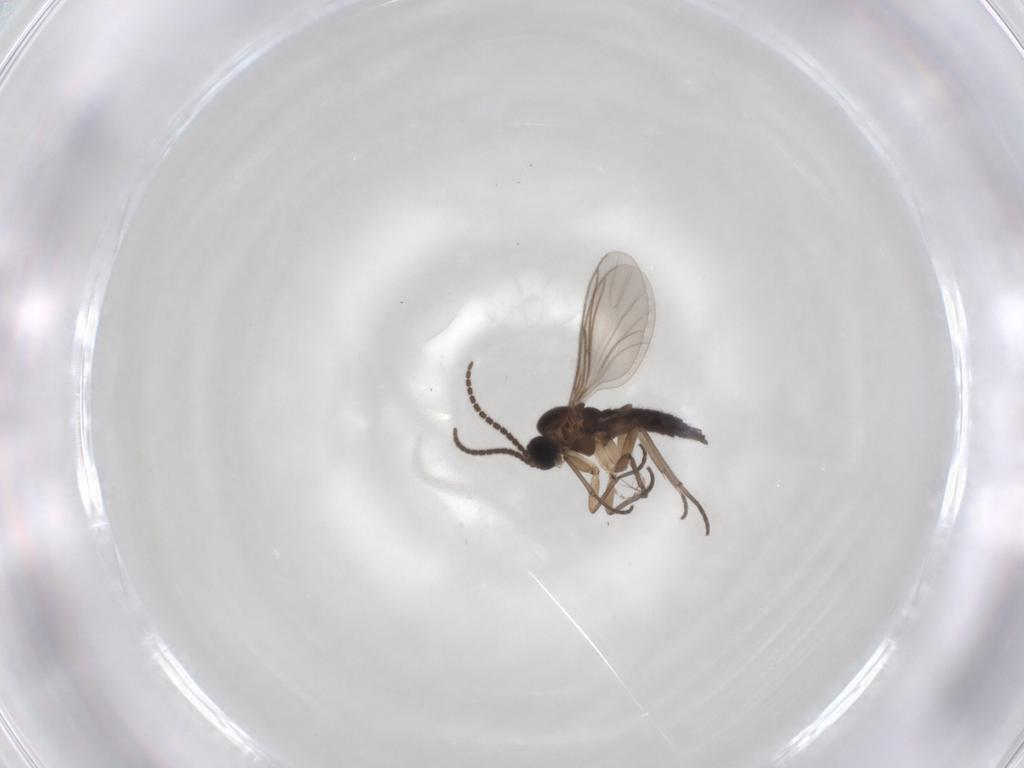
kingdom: Animalia
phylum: Arthropoda
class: Insecta
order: Diptera
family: Sciaridae
